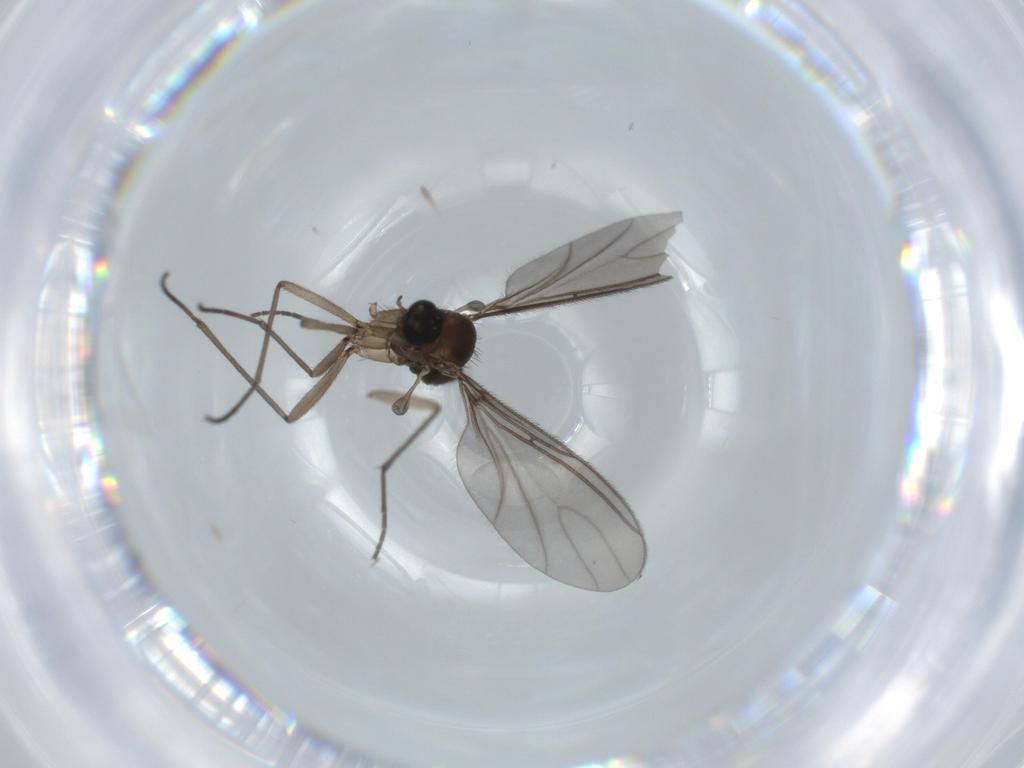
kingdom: Animalia
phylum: Arthropoda
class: Insecta
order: Diptera
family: Sciaridae
